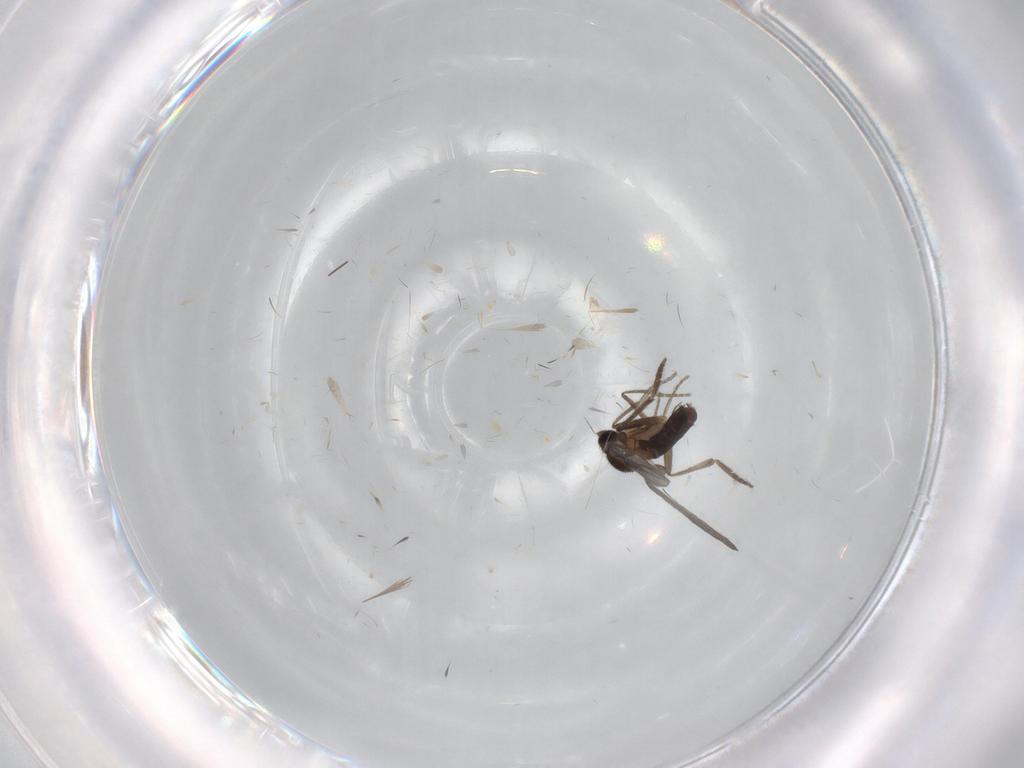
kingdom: Animalia
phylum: Arthropoda
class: Insecta
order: Diptera
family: Phoridae
